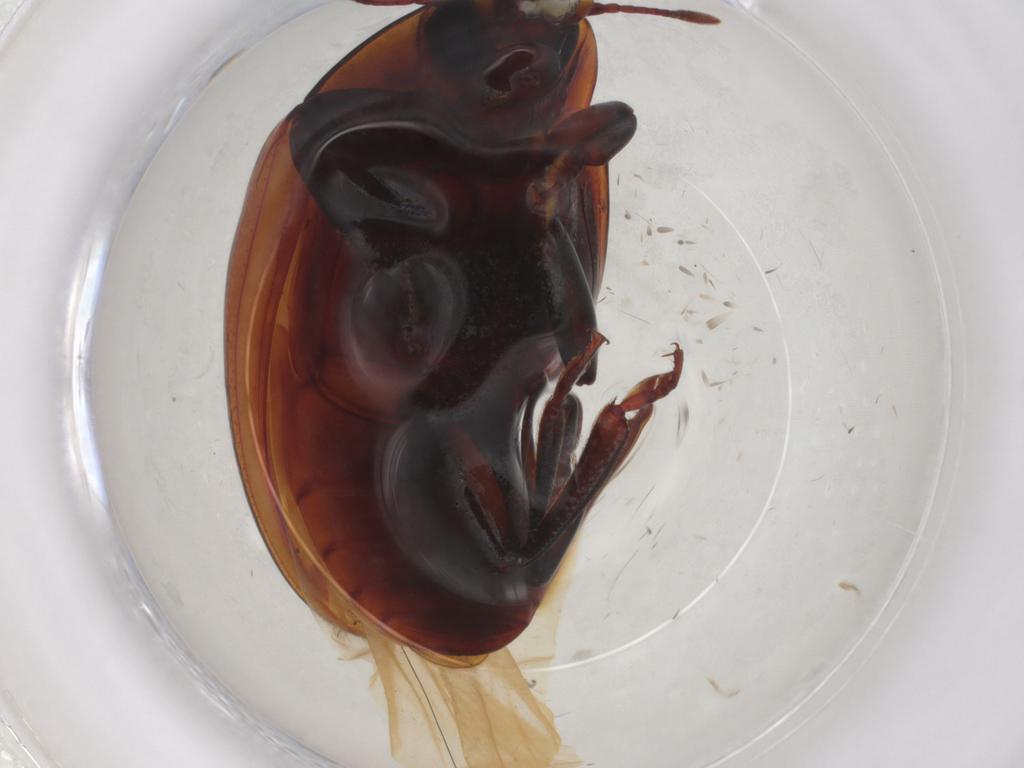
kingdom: Animalia
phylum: Arthropoda
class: Insecta
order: Coleoptera
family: Zopheridae
